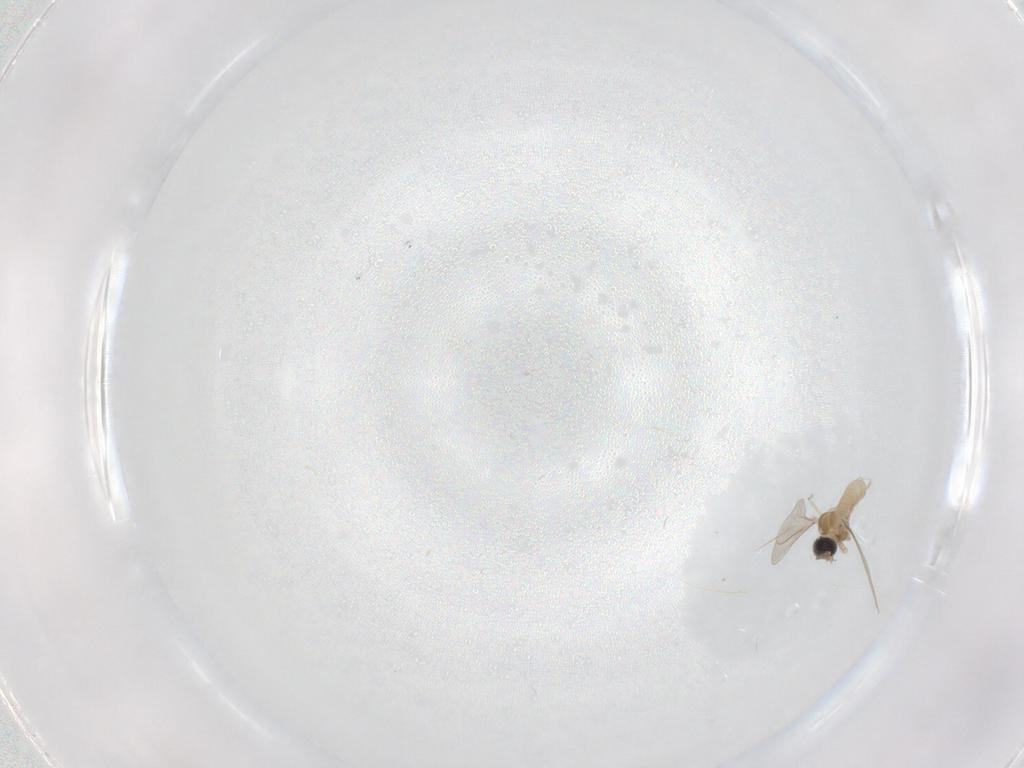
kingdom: Animalia
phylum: Arthropoda
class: Insecta
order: Diptera
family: Cecidomyiidae
